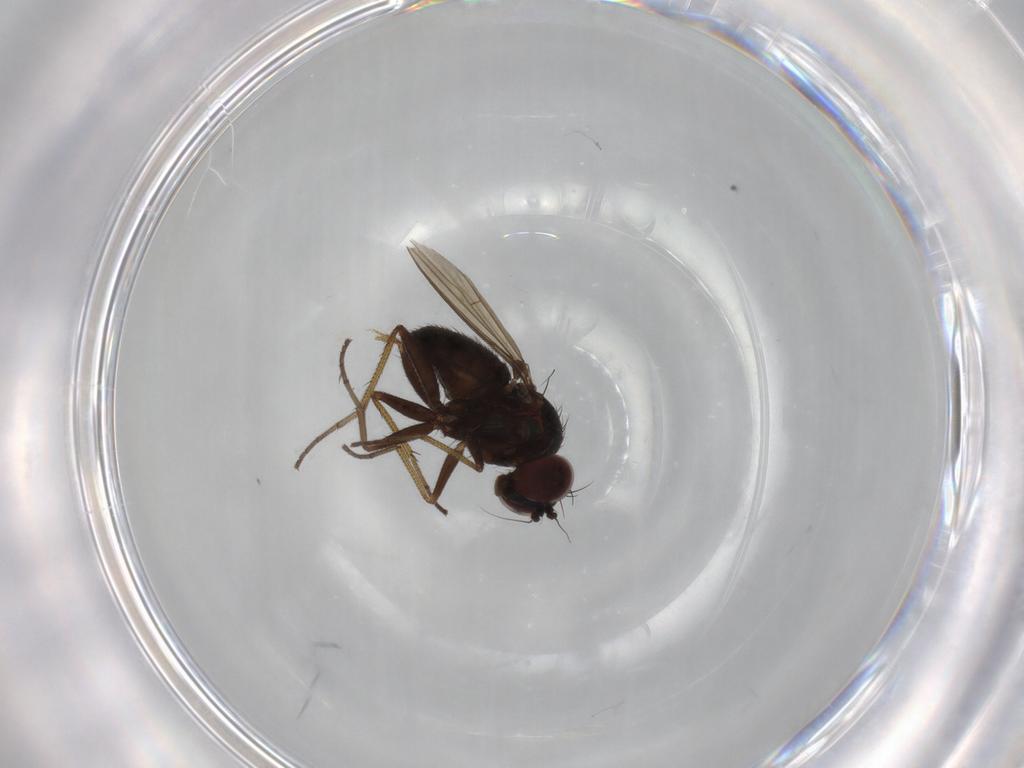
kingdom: Animalia
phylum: Arthropoda
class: Insecta
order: Diptera
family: Dolichopodidae
